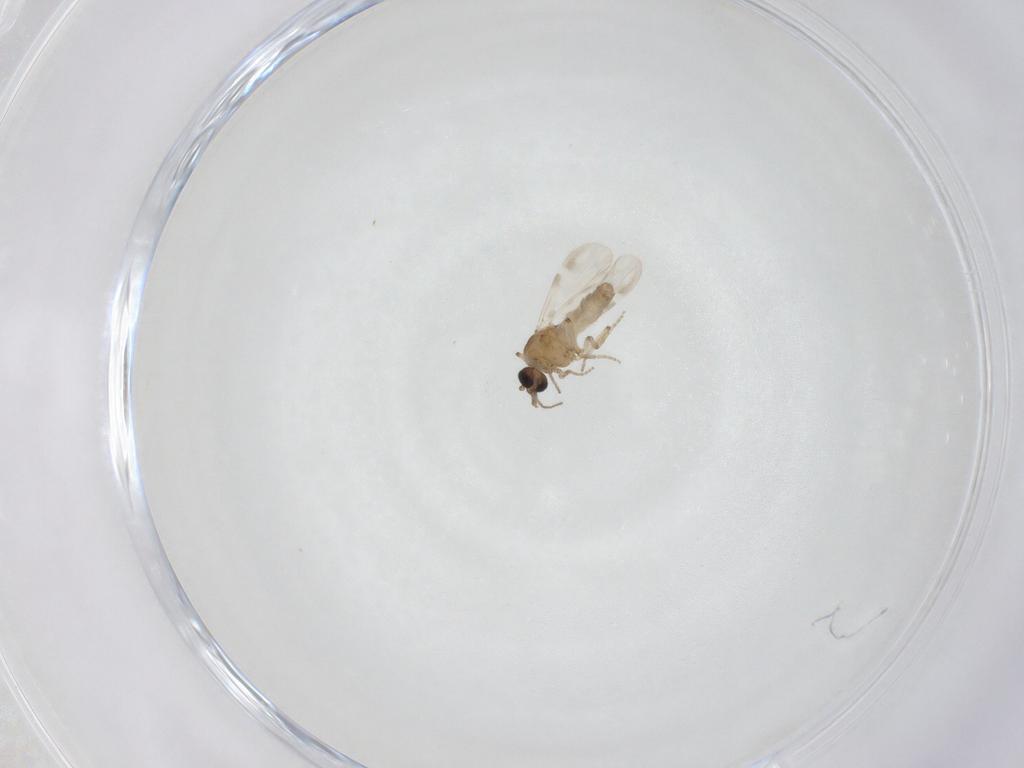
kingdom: Animalia
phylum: Arthropoda
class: Insecta
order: Diptera
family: Ceratopogonidae
